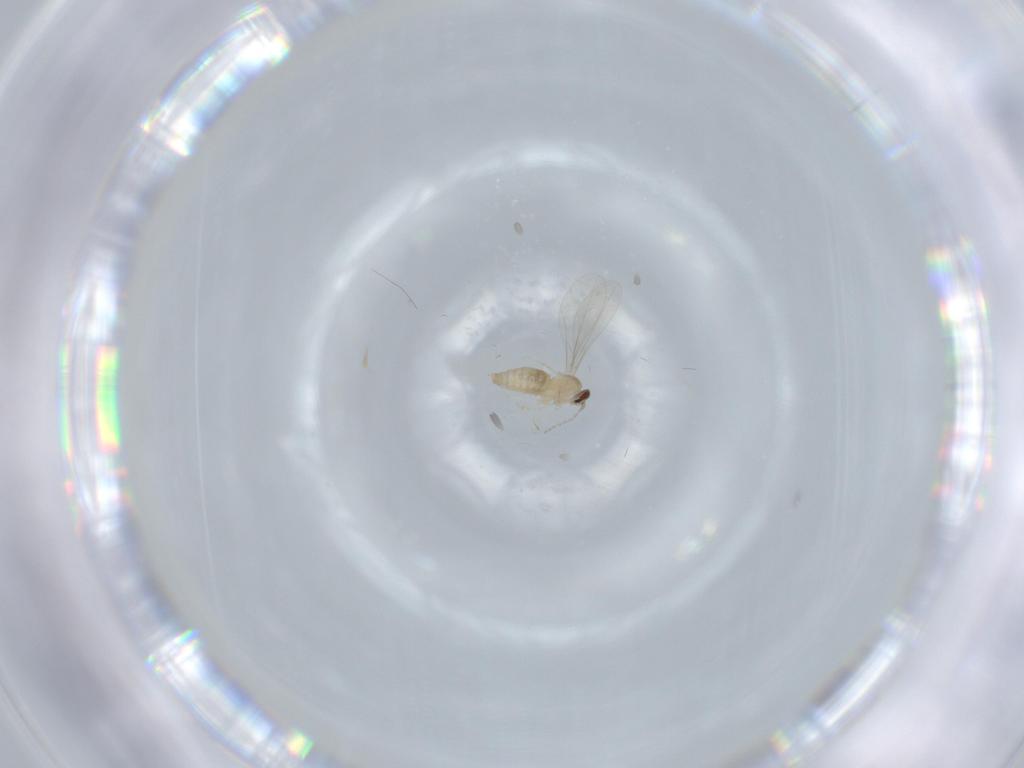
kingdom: Animalia
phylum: Arthropoda
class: Insecta
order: Diptera
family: Cecidomyiidae
